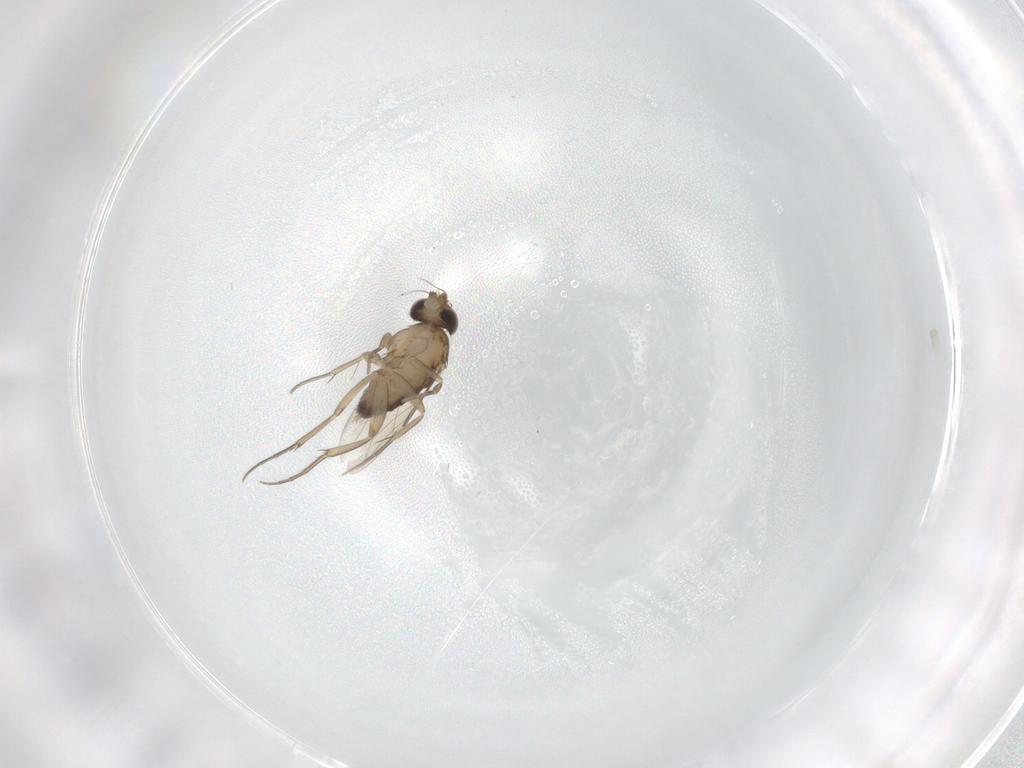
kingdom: Animalia
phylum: Arthropoda
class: Insecta
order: Diptera
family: Phoridae
